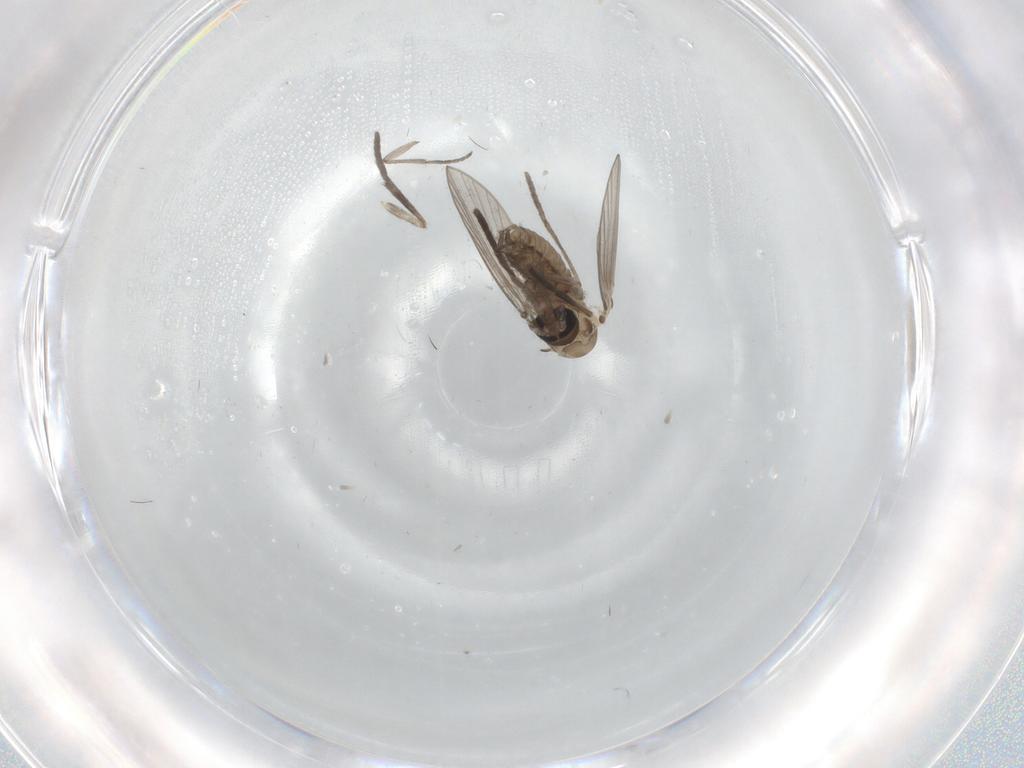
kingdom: Animalia
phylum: Arthropoda
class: Insecta
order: Diptera
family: Psychodidae
